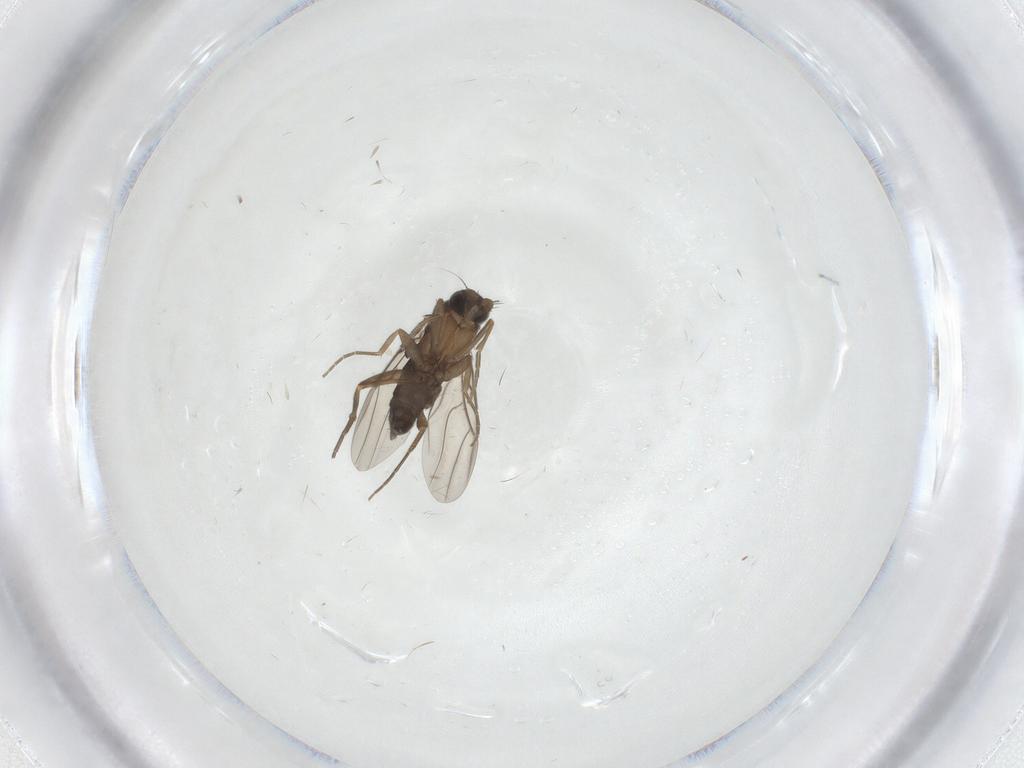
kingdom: Animalia
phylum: Arthropoda
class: Insecta
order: Diptera
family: Phoridae
